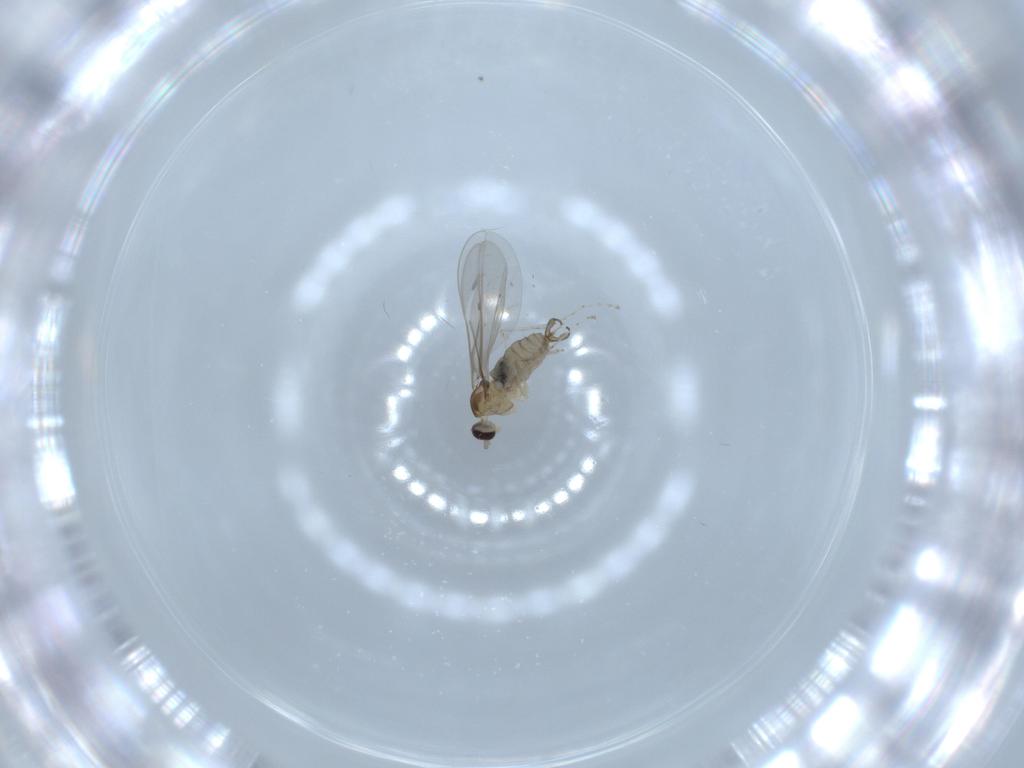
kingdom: Animalia
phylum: Arthropoda
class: Insecta
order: Diptera
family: Cecidomyiidae
